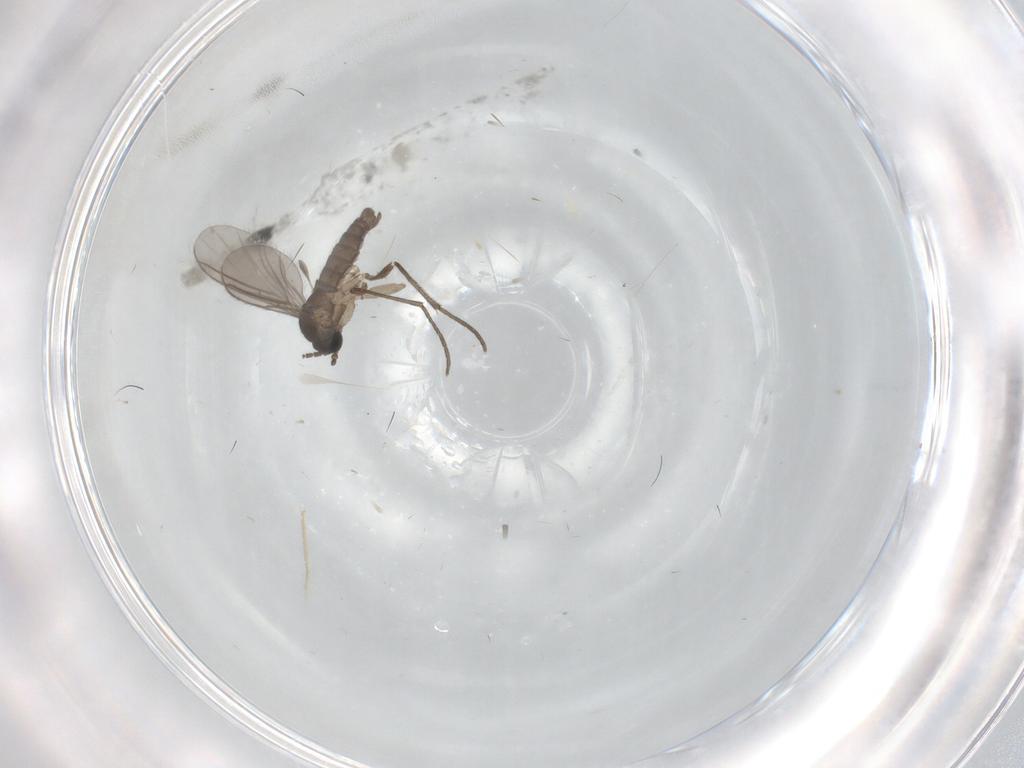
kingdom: Animalia
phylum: Arthropoda
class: Insecta
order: Diptera
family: Sciaridae
